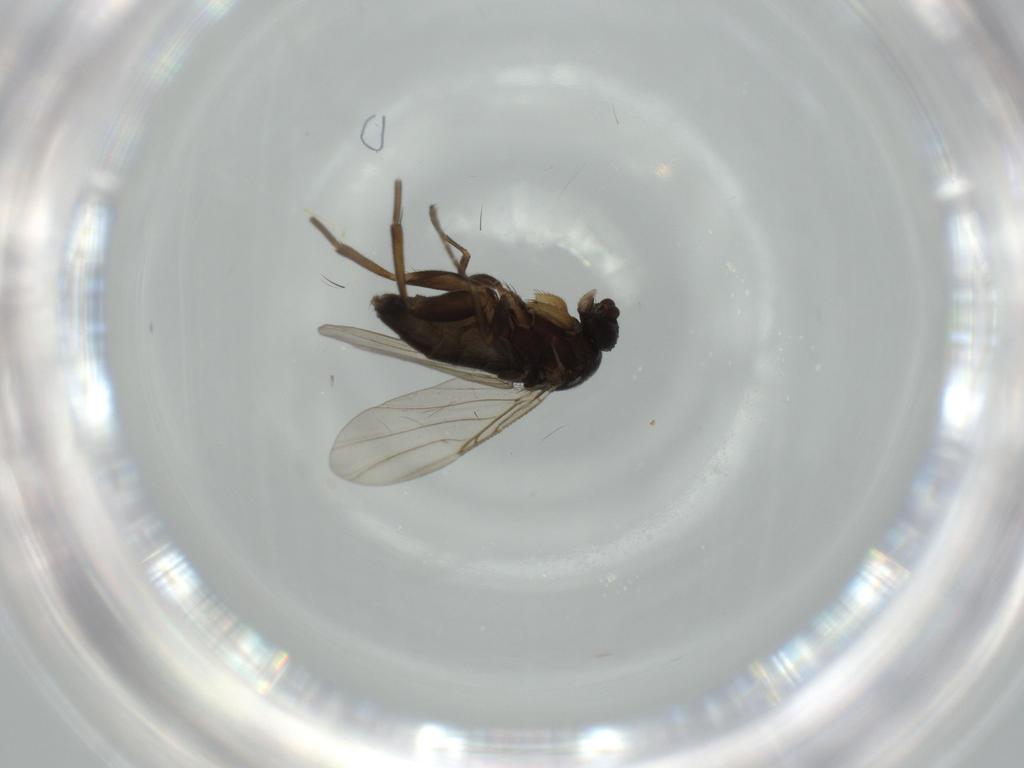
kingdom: Animalia
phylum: Arthropoda
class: Insecta
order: Diptera
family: Phoridae
